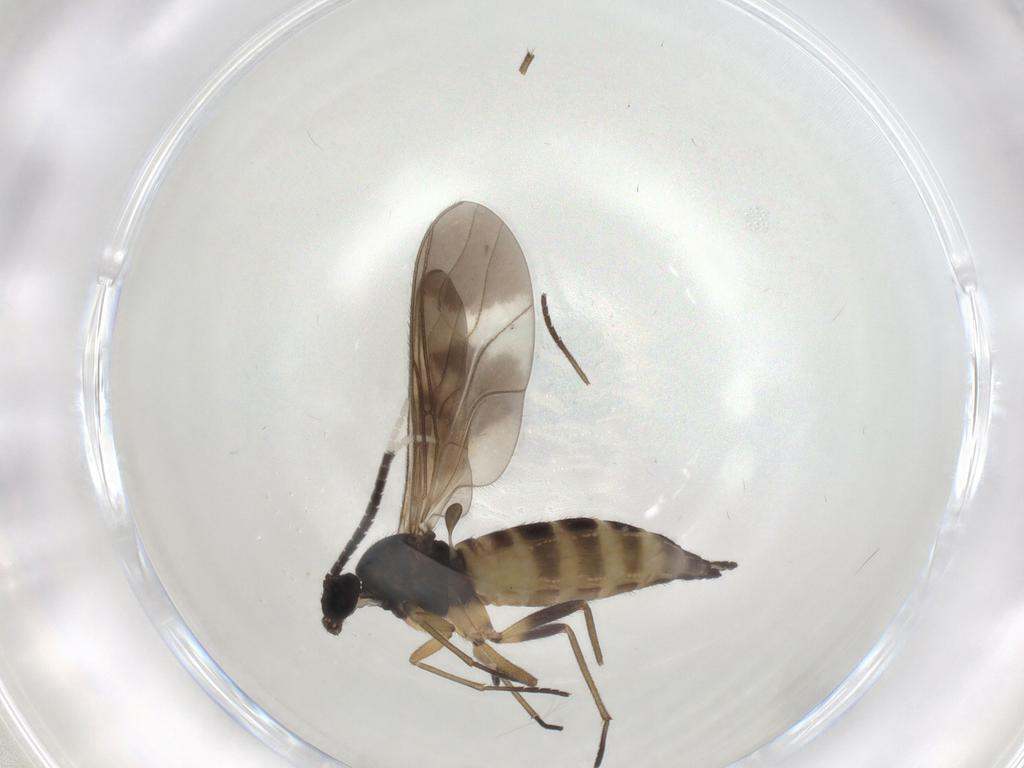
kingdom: Animalia
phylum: Arthropoda
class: Insecta
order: Diptera
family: Sciaridae
